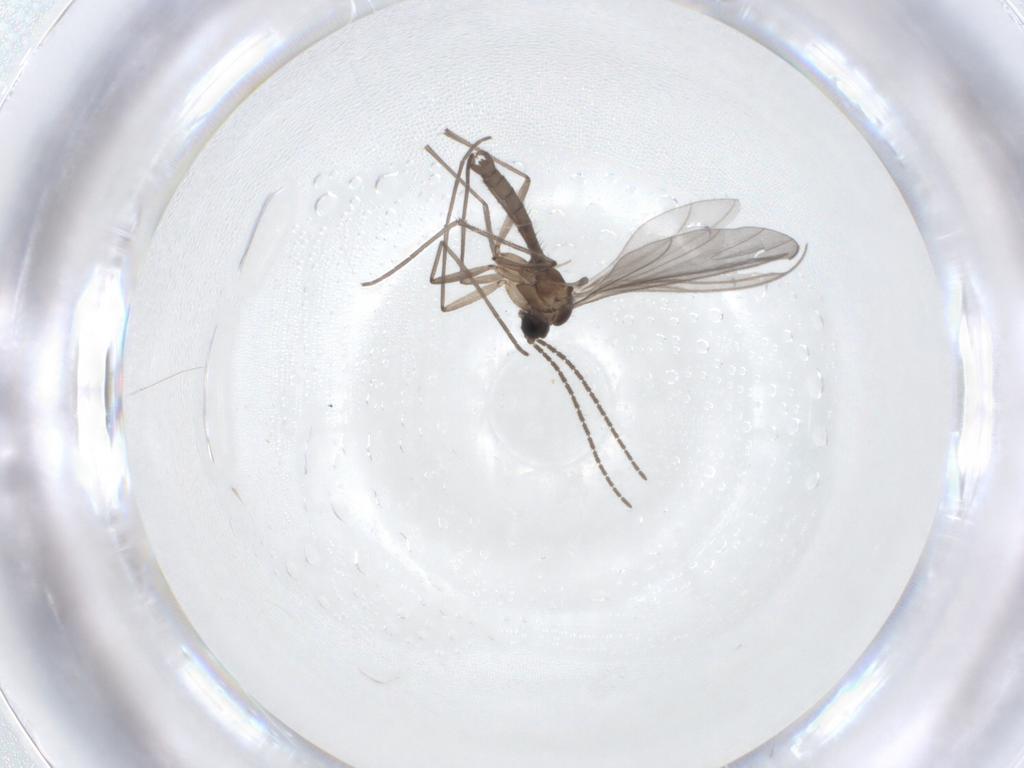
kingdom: Animalia
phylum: Arthropoda
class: Insecta
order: Diptera
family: Sciaridae
